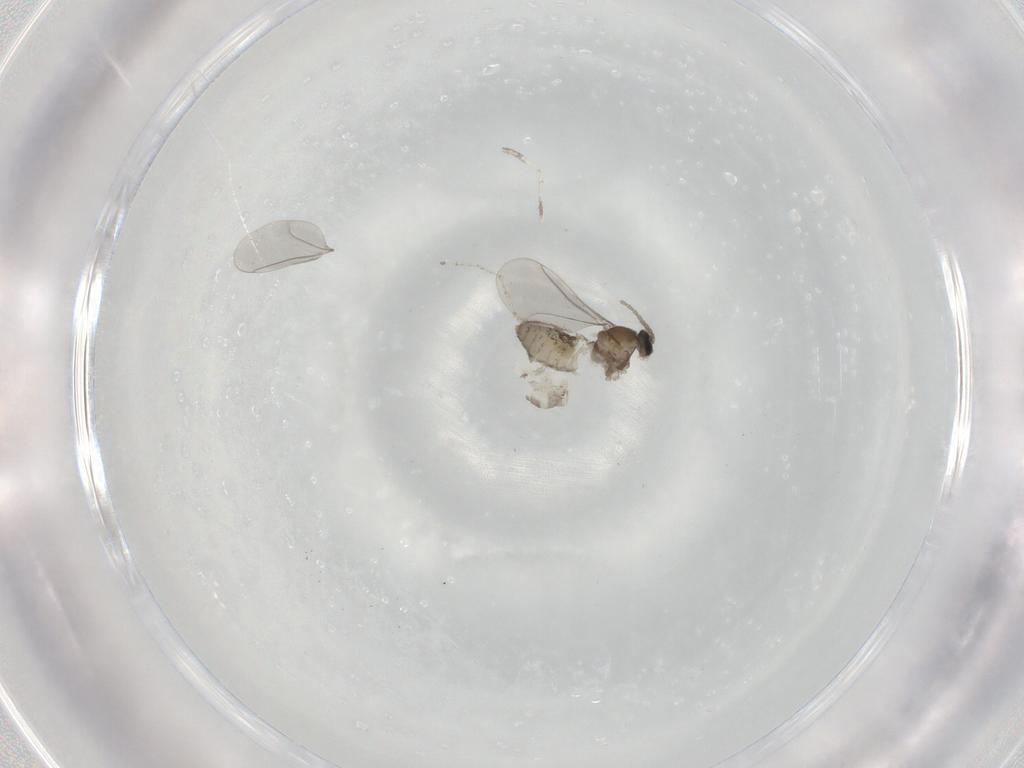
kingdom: Animalia
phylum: Arthropoda
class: Insecta
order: Diptera
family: Cecidomyiidae
